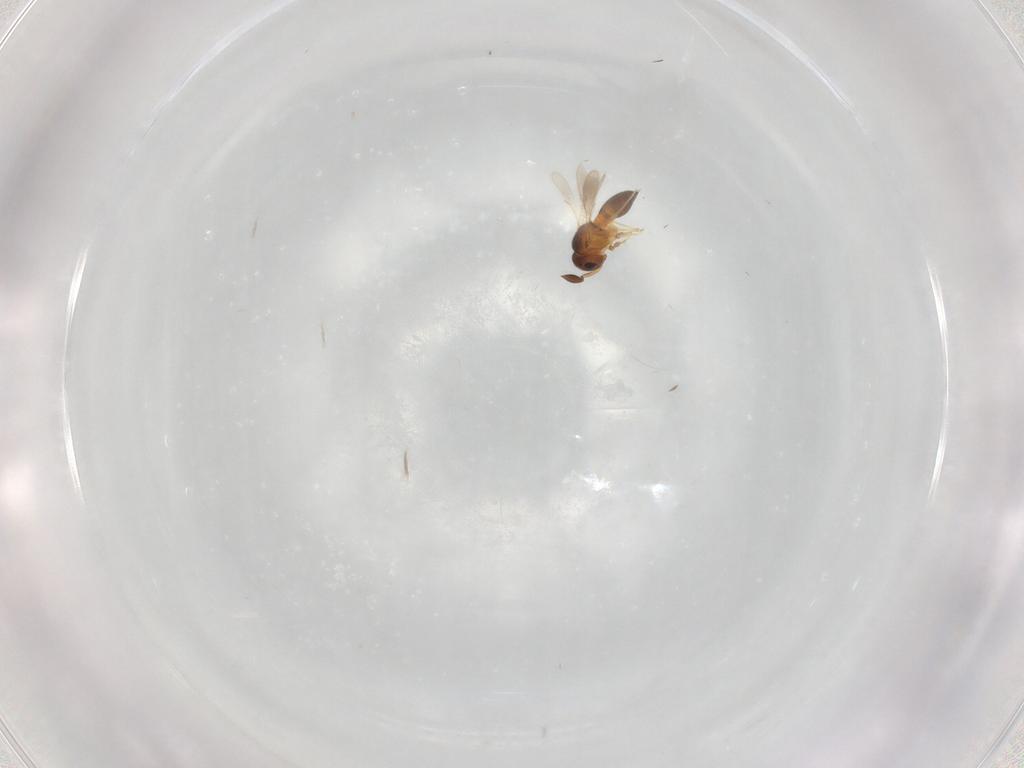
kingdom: Animalia
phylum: Arthropoda
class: Insecta
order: Hymenoptera
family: Scelionidae
